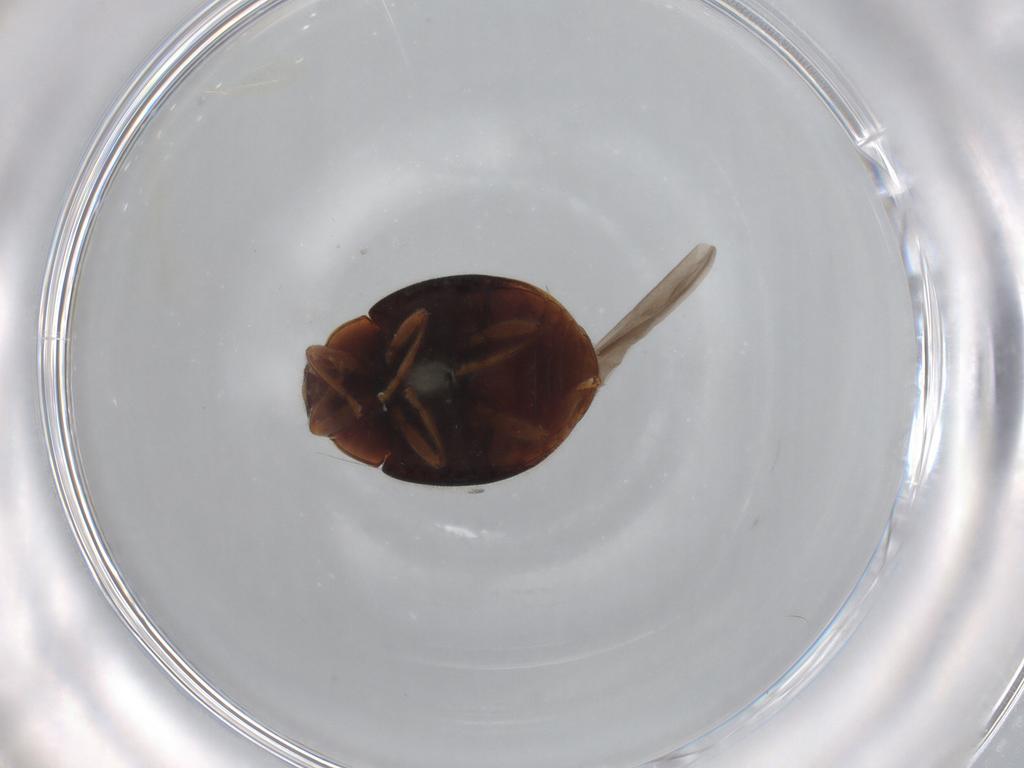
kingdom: Animalia
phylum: Arthropoda
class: Insecta
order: Coleoptera
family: Coccinellidae
